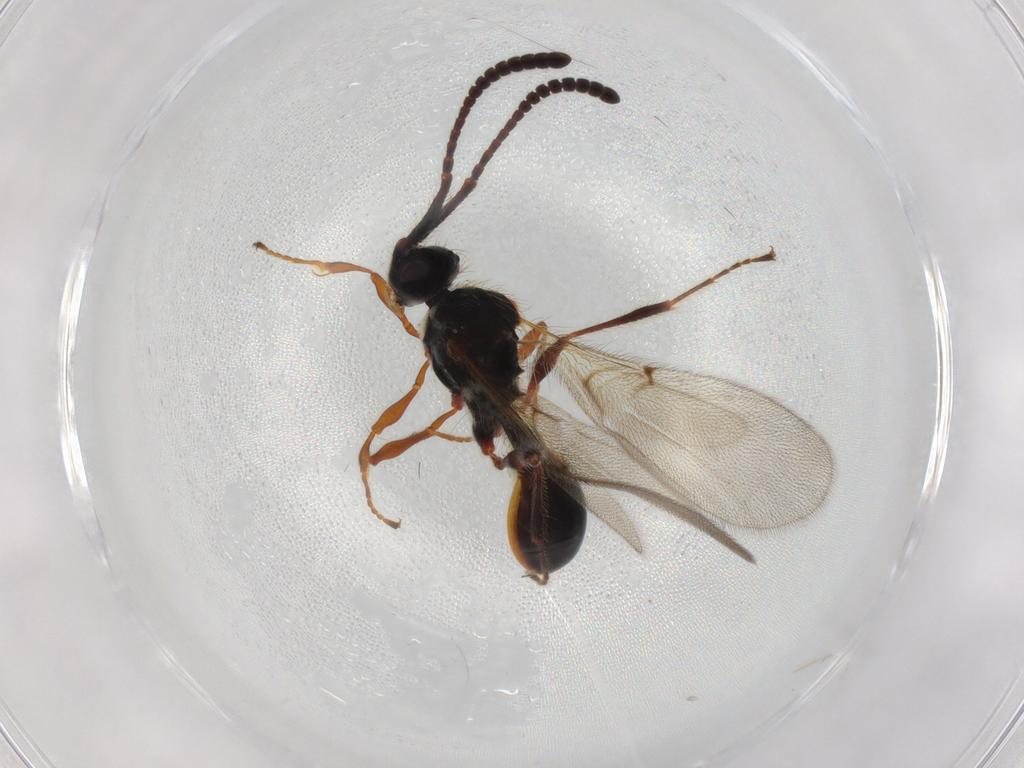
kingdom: Animalia
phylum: Arthropoda
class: Insecta
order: Hymenoptera
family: Diapriidae
